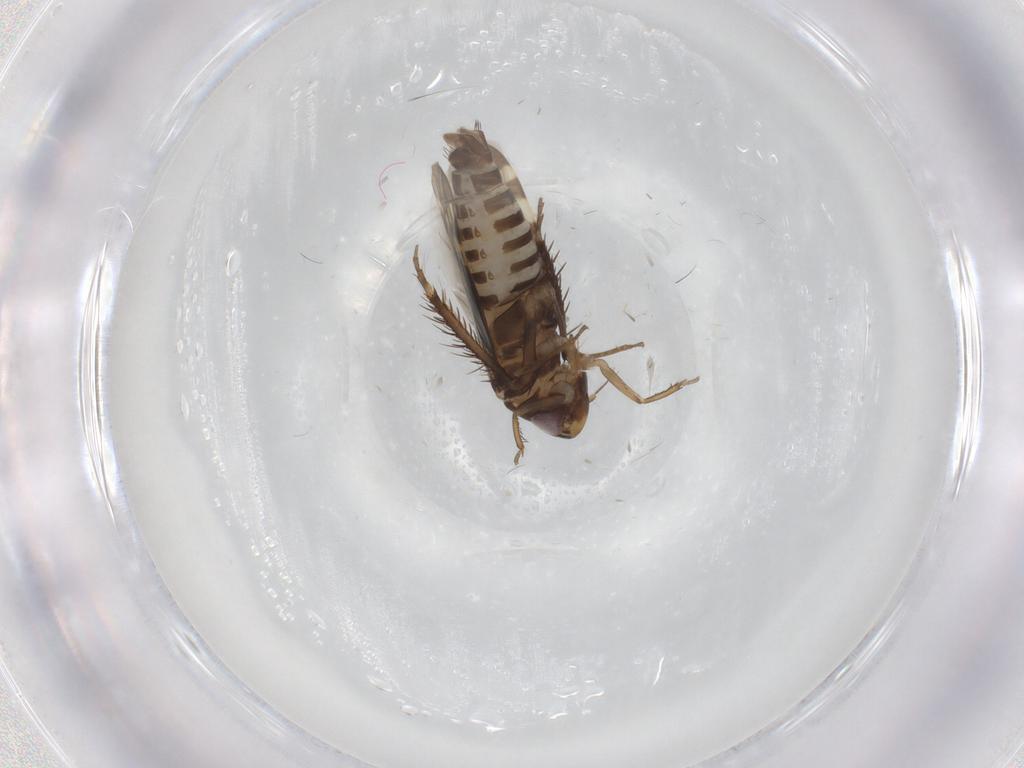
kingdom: Animalia
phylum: Arthropoda
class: Insecta
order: Hemiptera
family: Cicadellidae
